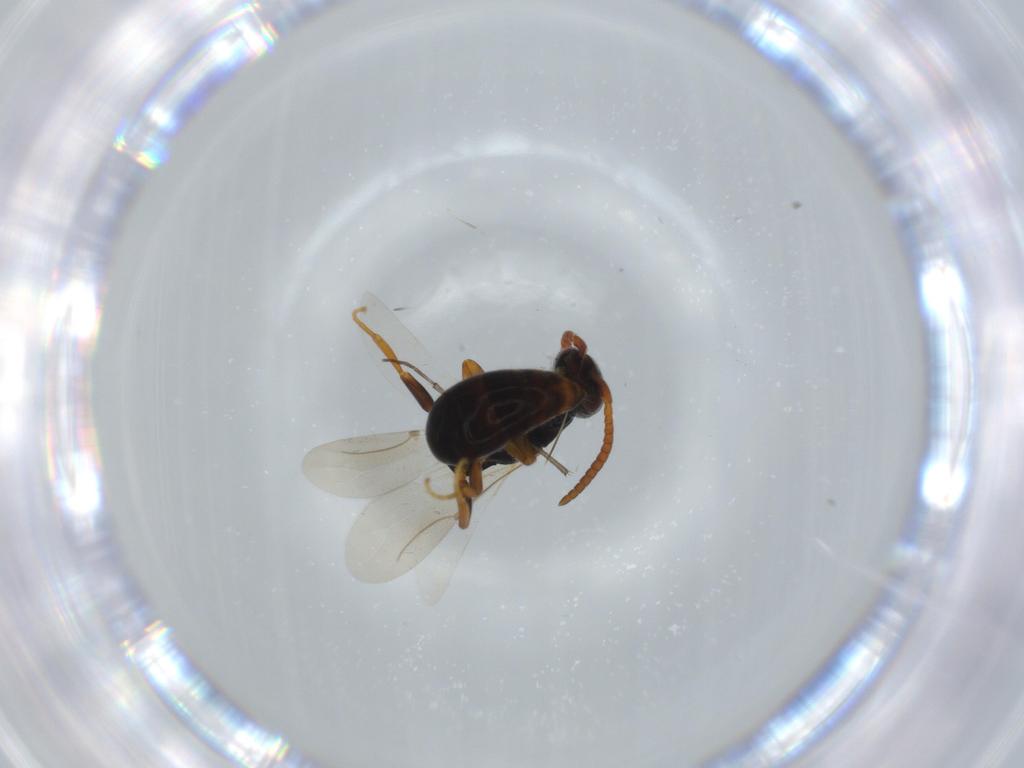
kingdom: Animalia
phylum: Arthropoda
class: Insecta
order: Hymenoptera
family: Bethylidae
